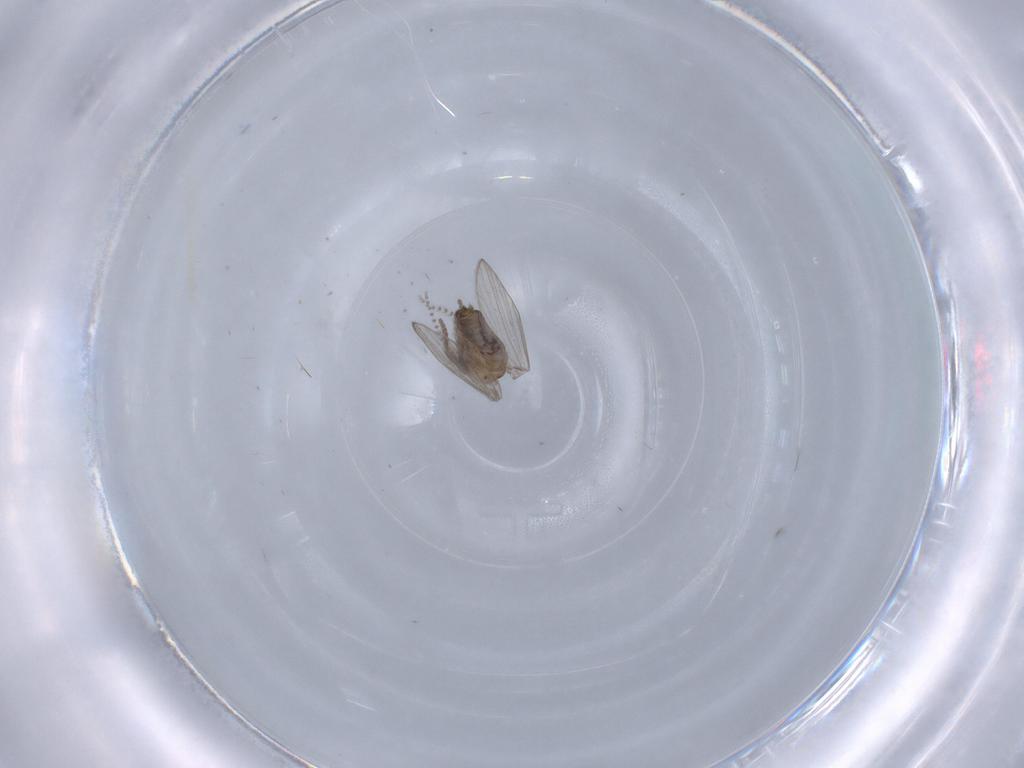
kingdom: Animalia
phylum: Arthropoda
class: Insecta
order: Diptera
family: Psychodidae
